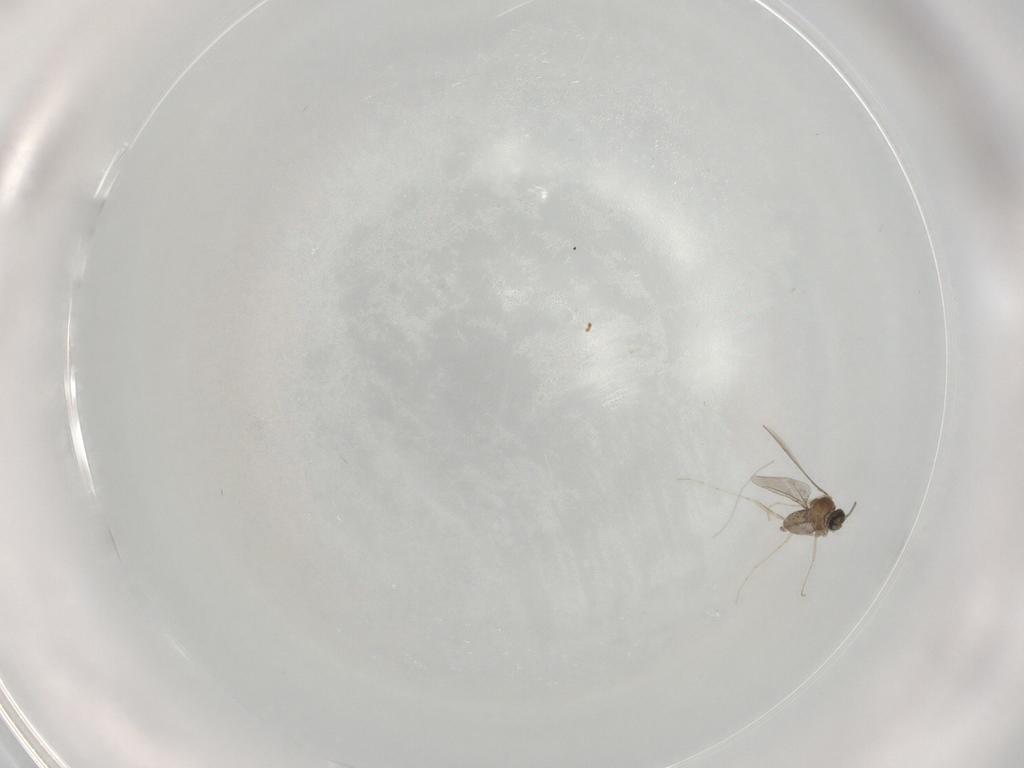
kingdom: Animalia
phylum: Arthropoda
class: Insecta
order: Diptera
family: Cecidomyiidae
